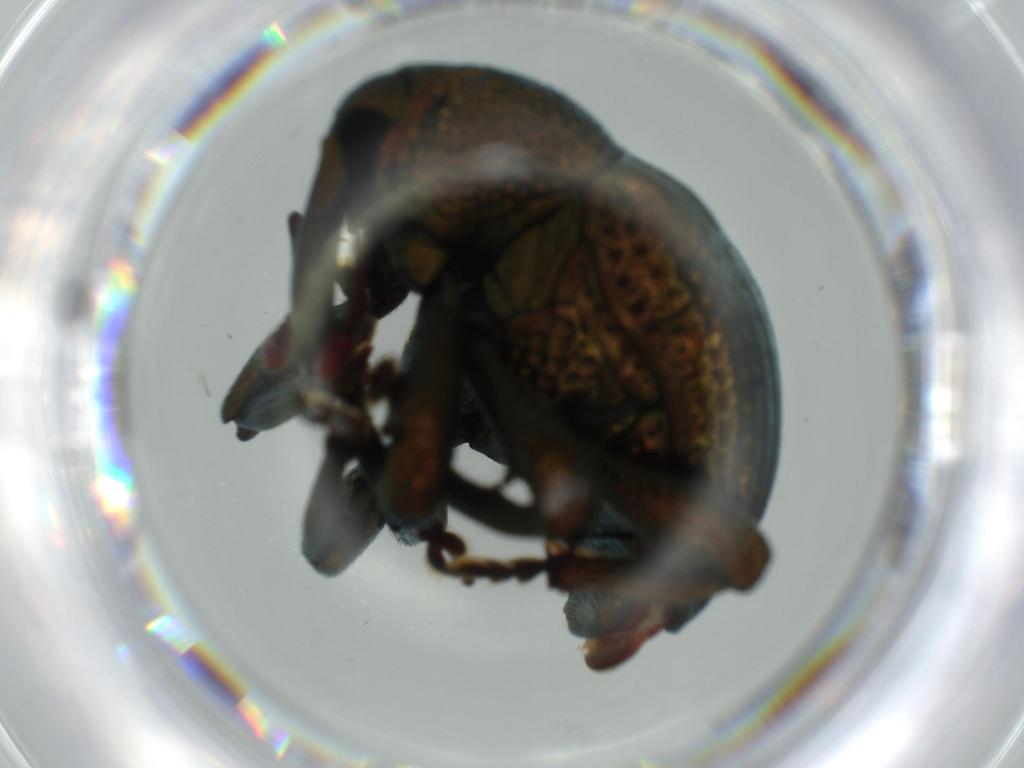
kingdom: Animalia
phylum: Arthropoda
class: Insecta
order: Coleoptera
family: Curculionidae
